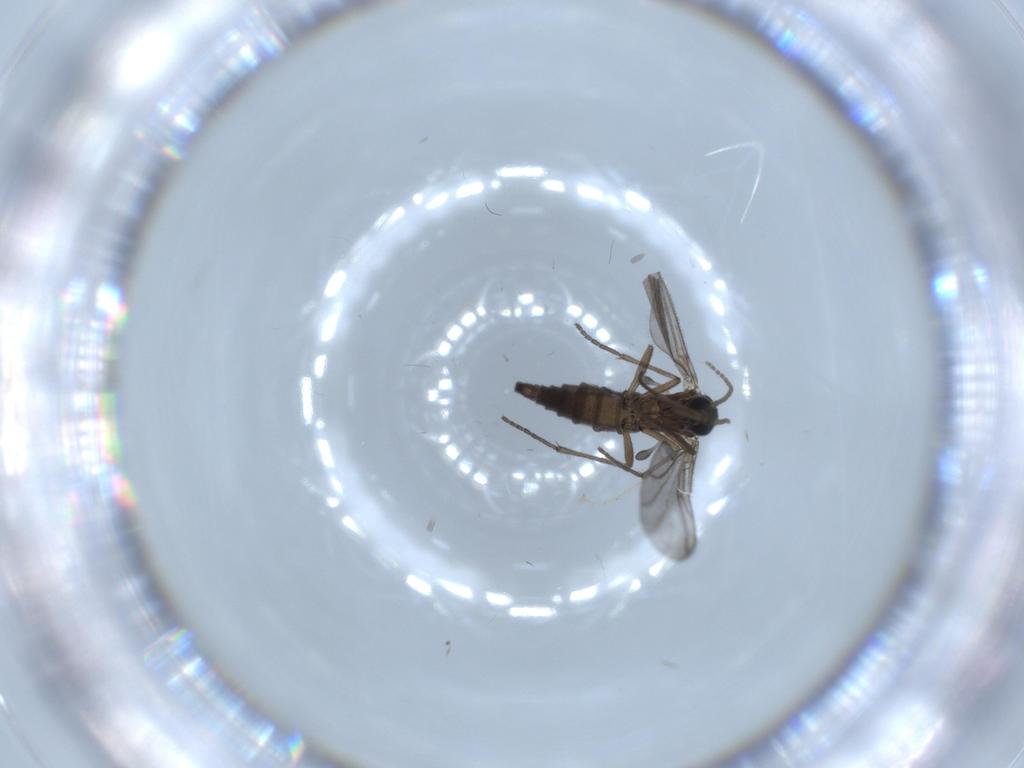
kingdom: Animalia
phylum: Arthropoda
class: Insecta
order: Diptera
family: Sciaridae
